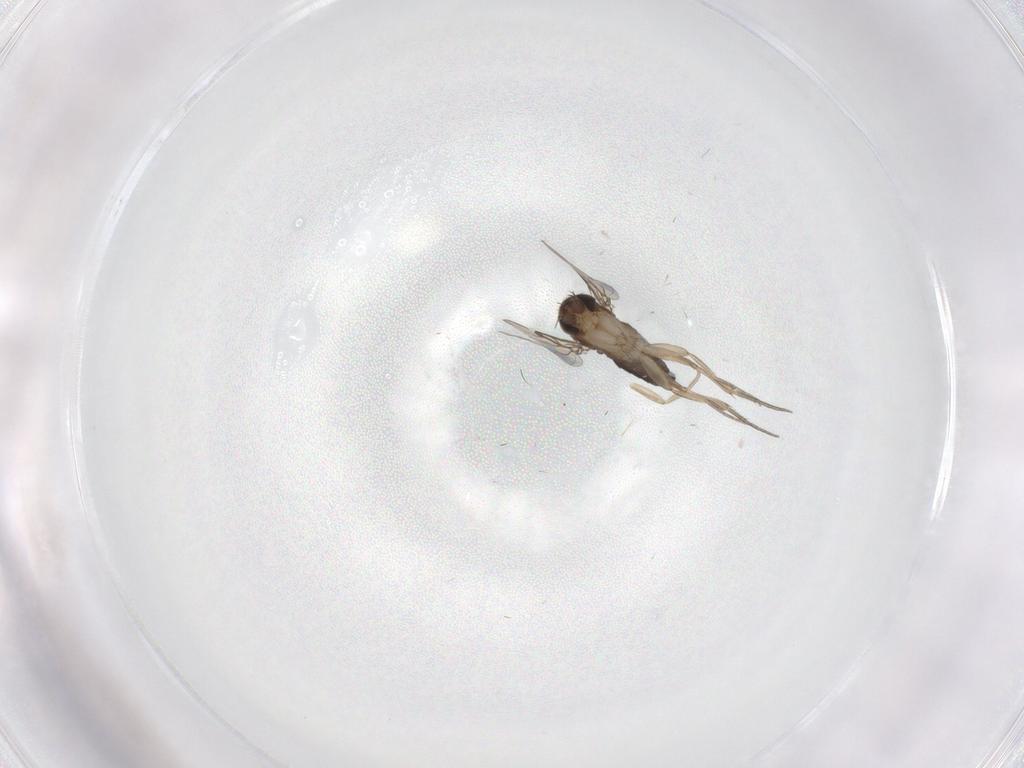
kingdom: Animalia
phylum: Arthropoda
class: Insecta
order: Diptera
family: Phoridae
